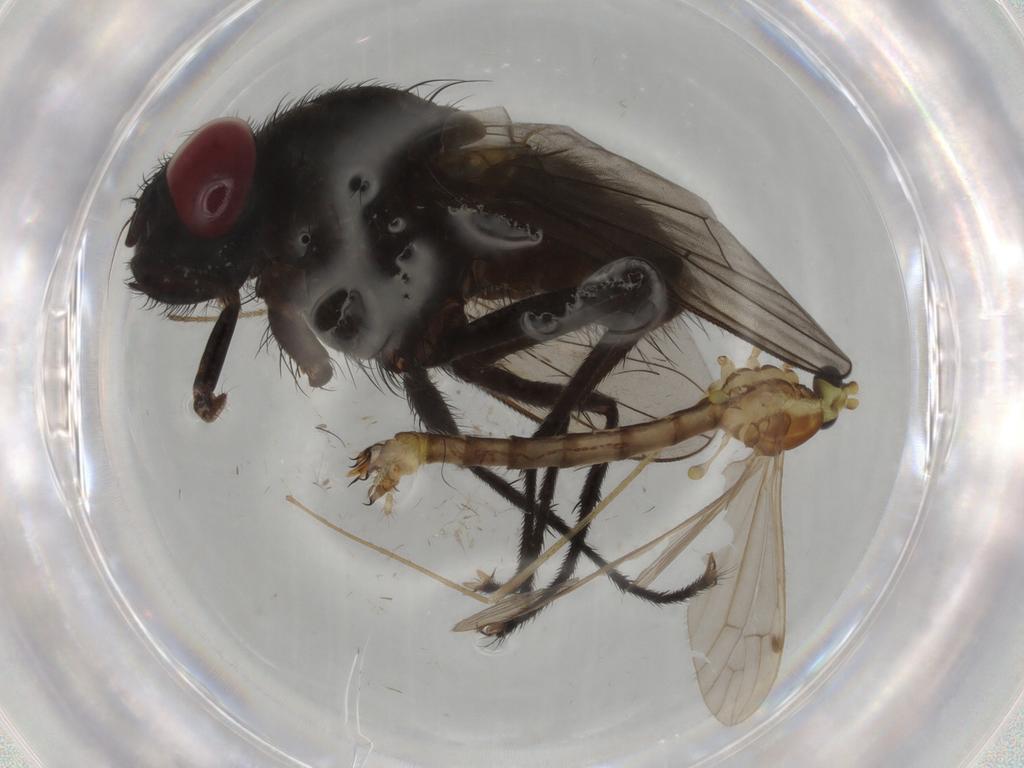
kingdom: Animalia
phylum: Arthropoda
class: Insecta
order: Diptera
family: Muscidae
